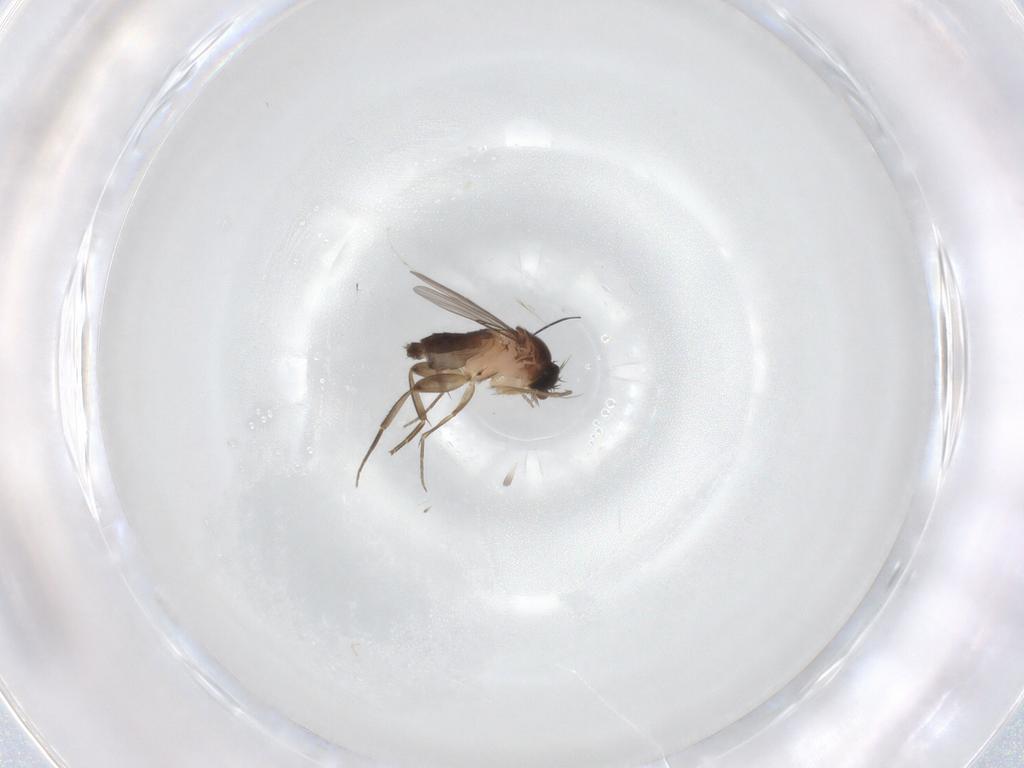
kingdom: Animalia
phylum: Arthropoda
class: Insecta
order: Diptera
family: Phoridae
